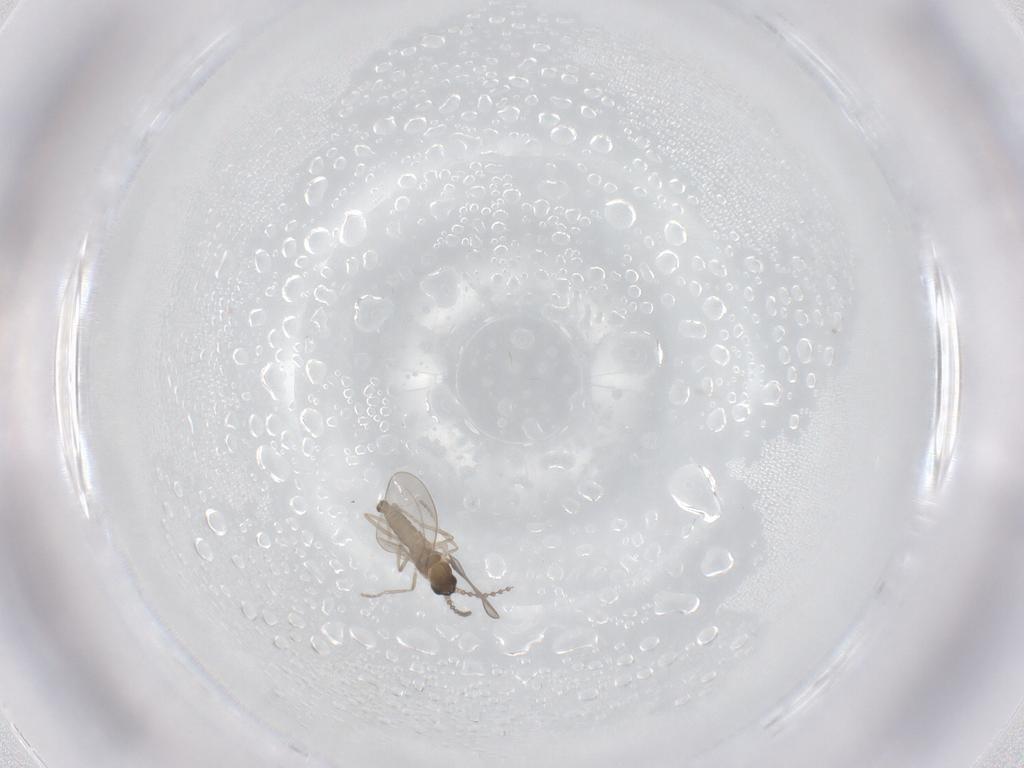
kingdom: Animalia
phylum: Arthropoda
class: Insecta
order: Diptera
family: Cecidomyiidae
